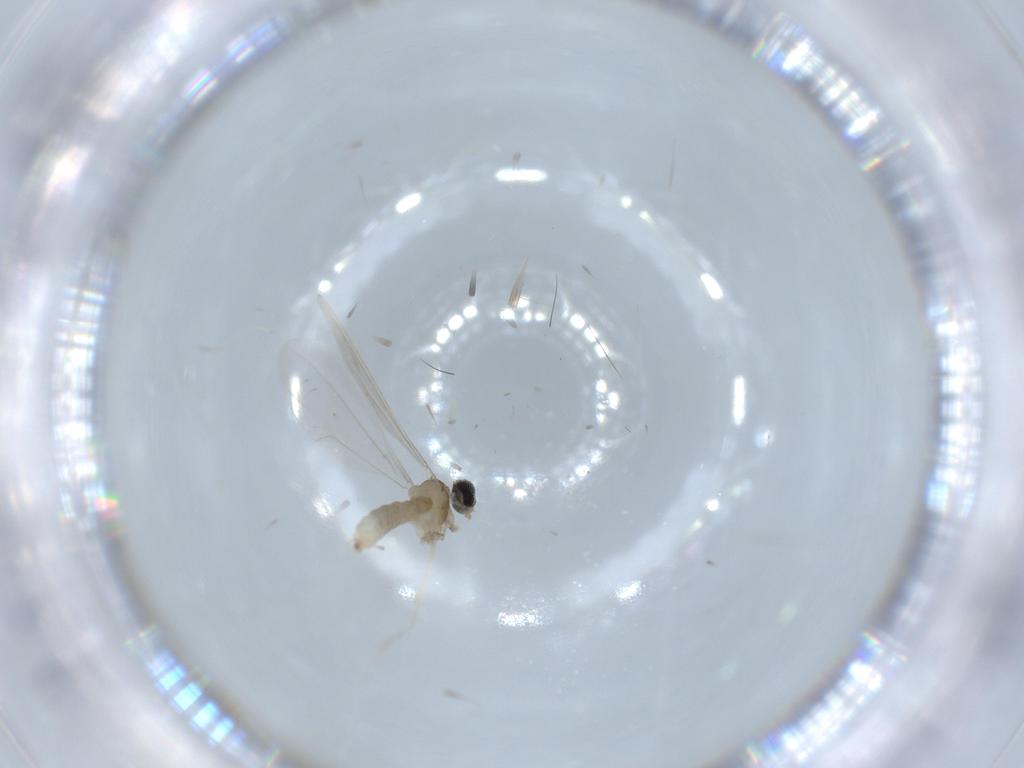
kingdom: Animalia
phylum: Arthropoda
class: Insecta
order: Diptera
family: Cecidomyiidae
